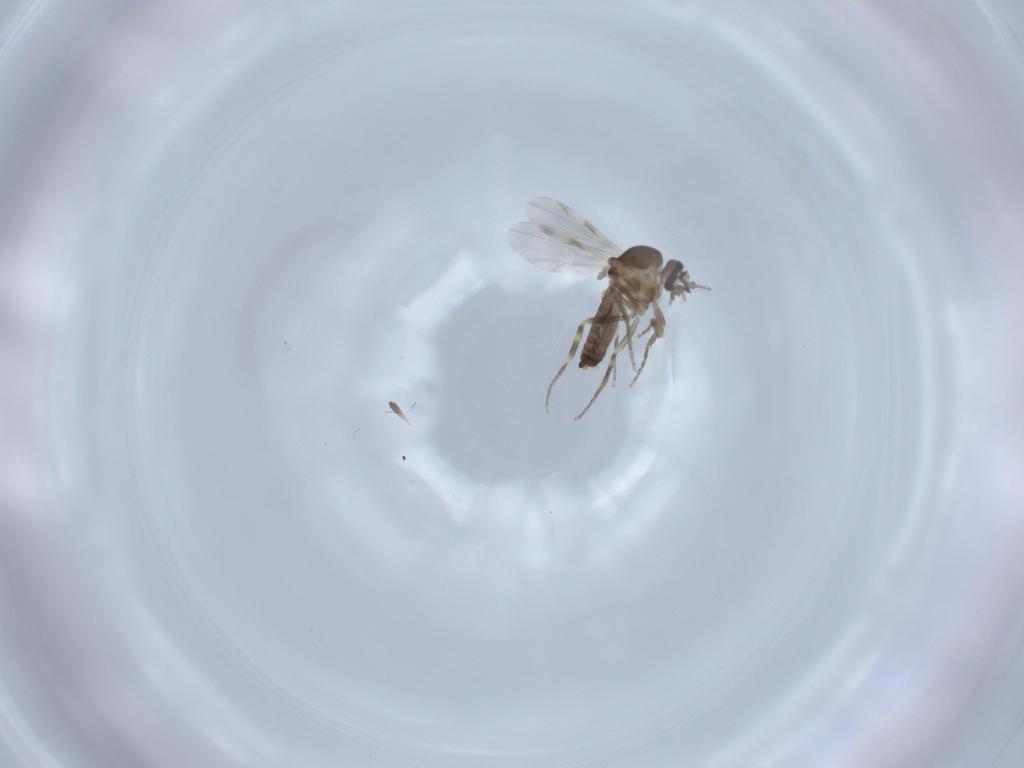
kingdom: Animalia
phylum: Arthropoda
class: Insecta
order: Diptera
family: Ceratopogonidae
